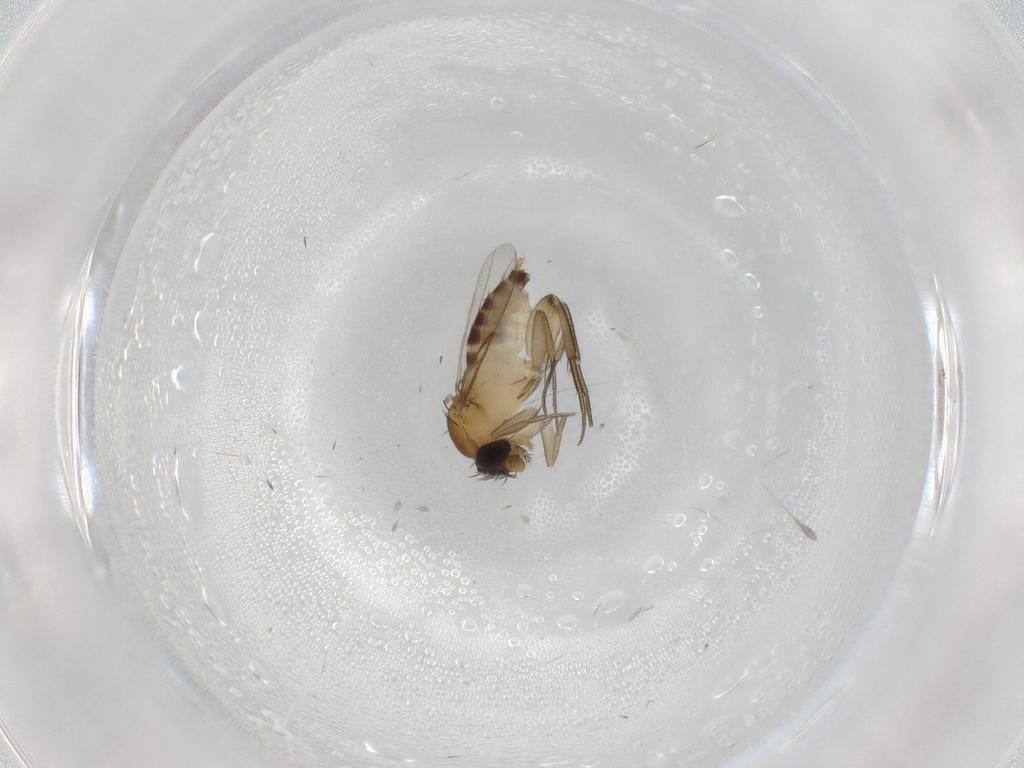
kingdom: Animalia
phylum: Arthropoda
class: Insecta
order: Diptera
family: Phoridae
